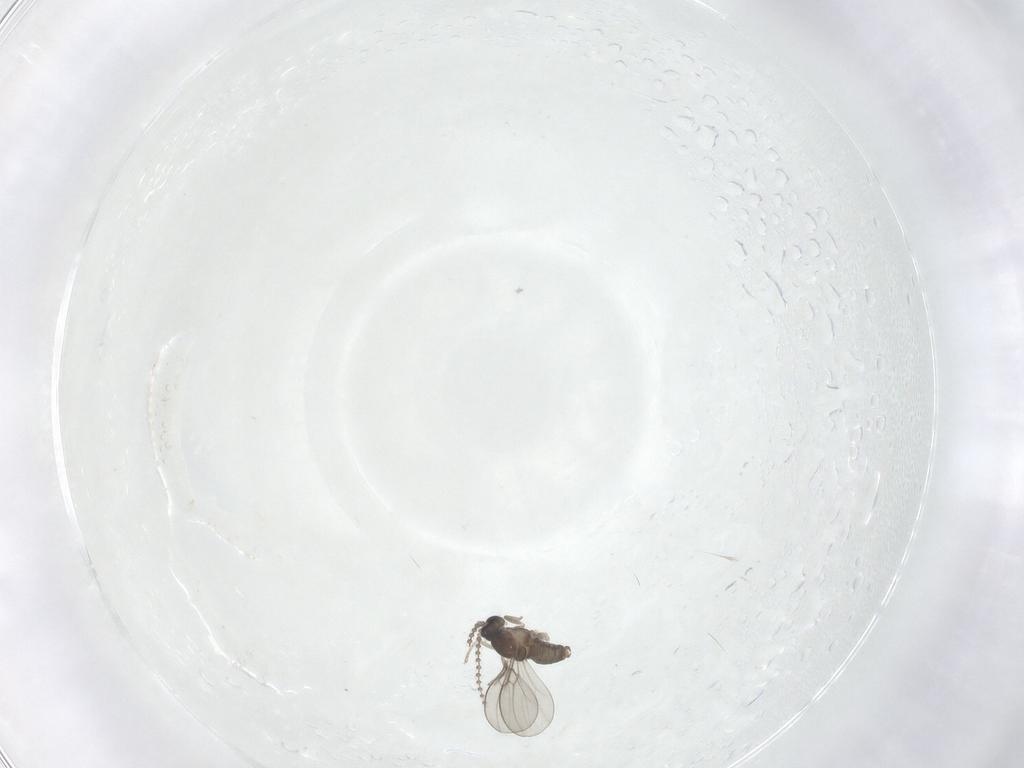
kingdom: Animalia
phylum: Arthropoda
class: Insecta
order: Diptera
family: Cecidomyiidae
